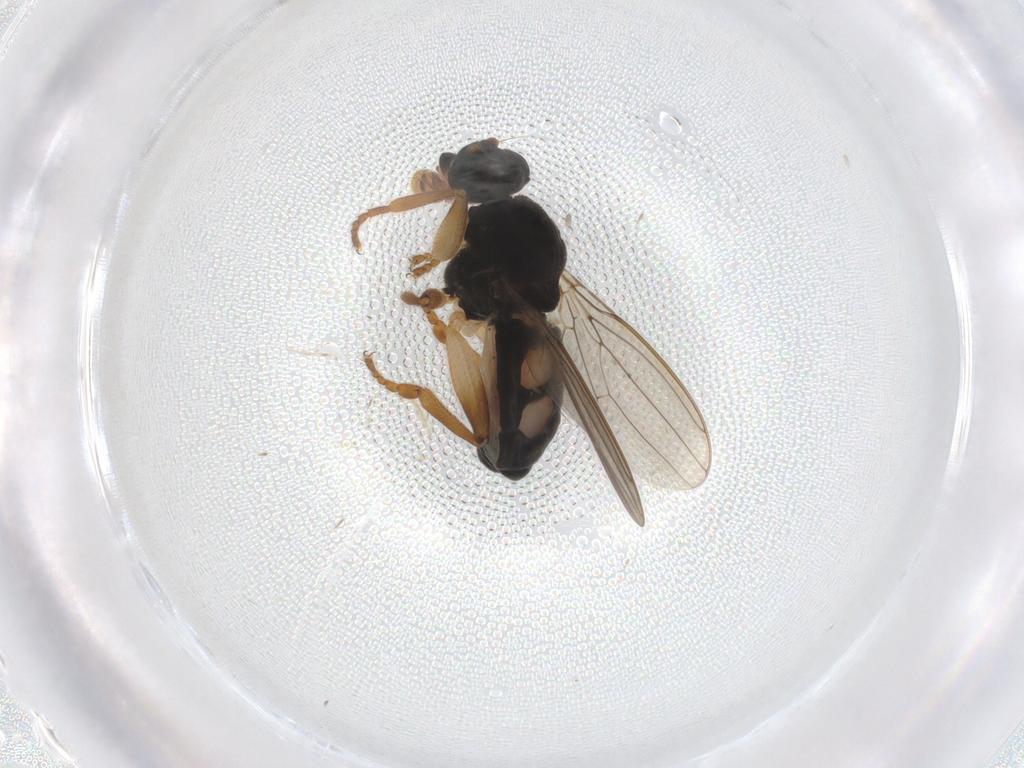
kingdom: Animalia
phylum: Arthropoda
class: Insecta
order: Diptera
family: Sphaeroceridae
